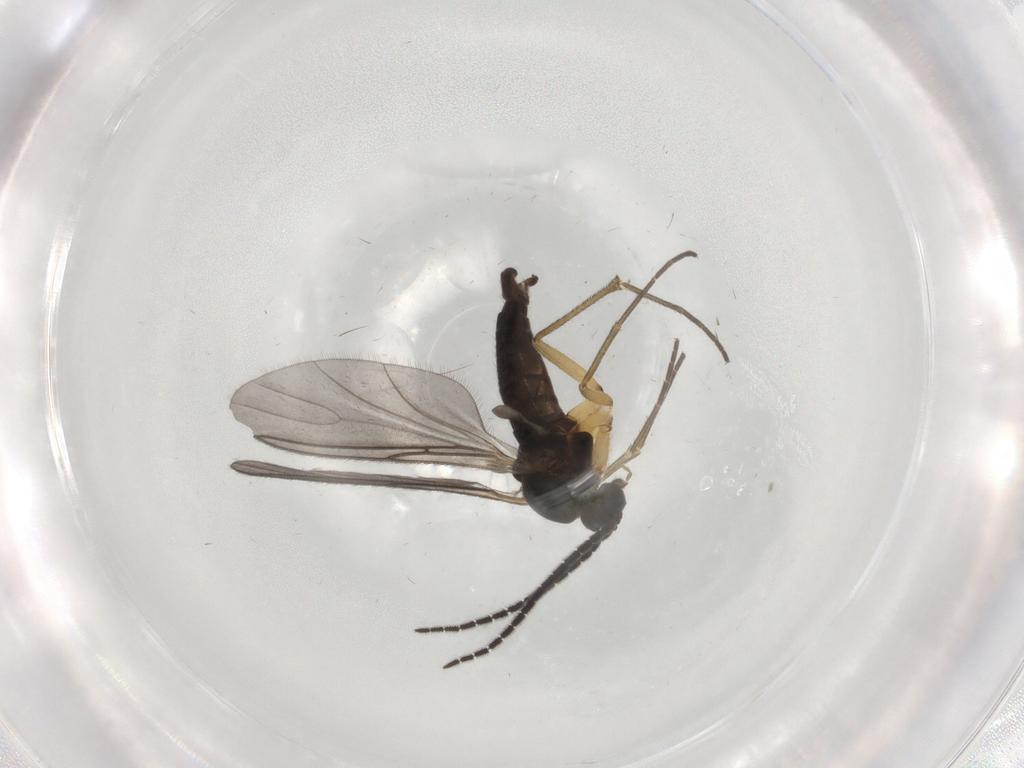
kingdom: Animalia
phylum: Arthropoda
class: Insecta
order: Diptera
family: Sciaridae
